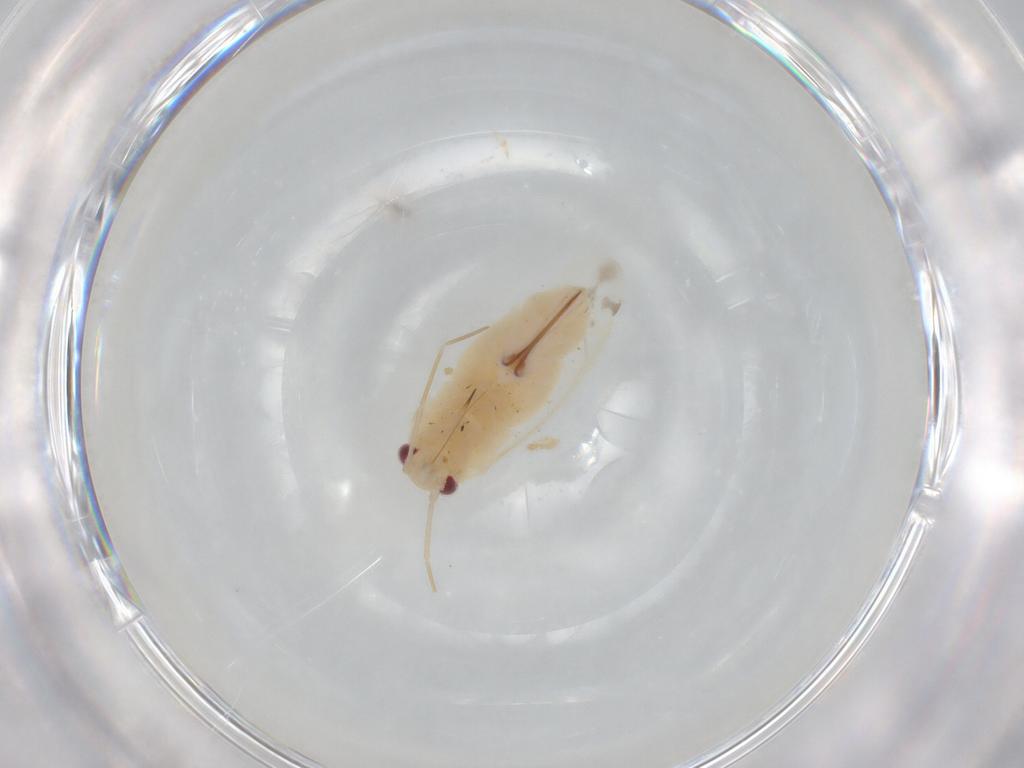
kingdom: Animalia
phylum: Arthropoda
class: Insecta
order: Hemiptera
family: Miridae
